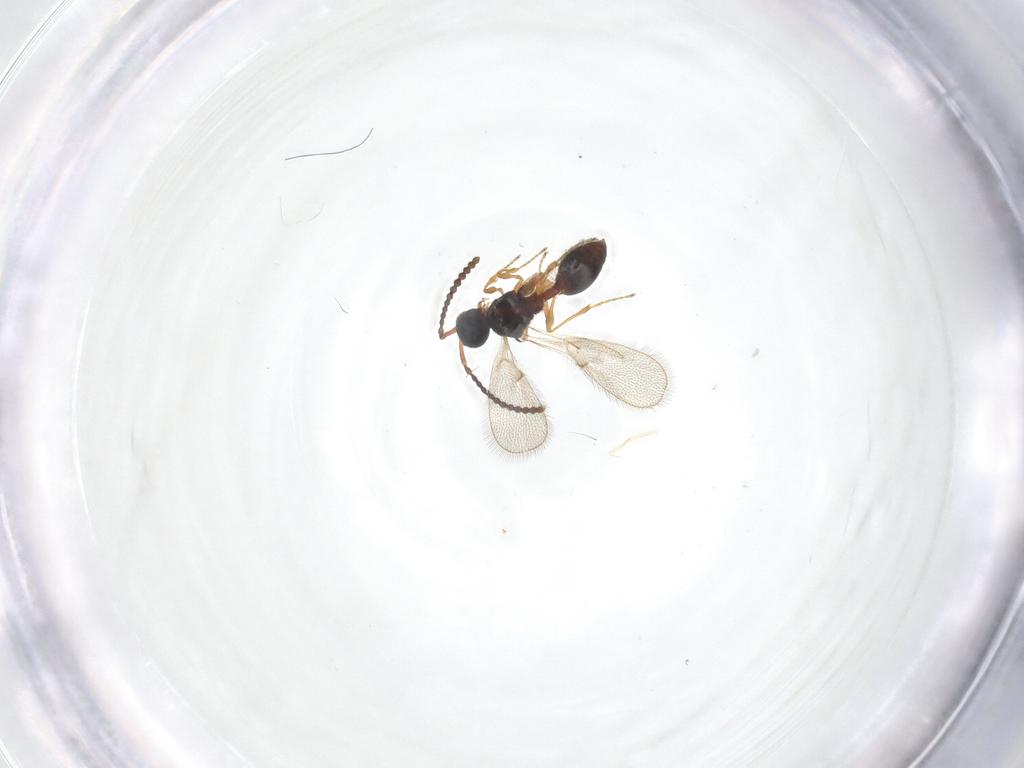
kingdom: Animalia
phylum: Arthropoda
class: Insecta
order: Hymenoptera
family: Diapriidae
